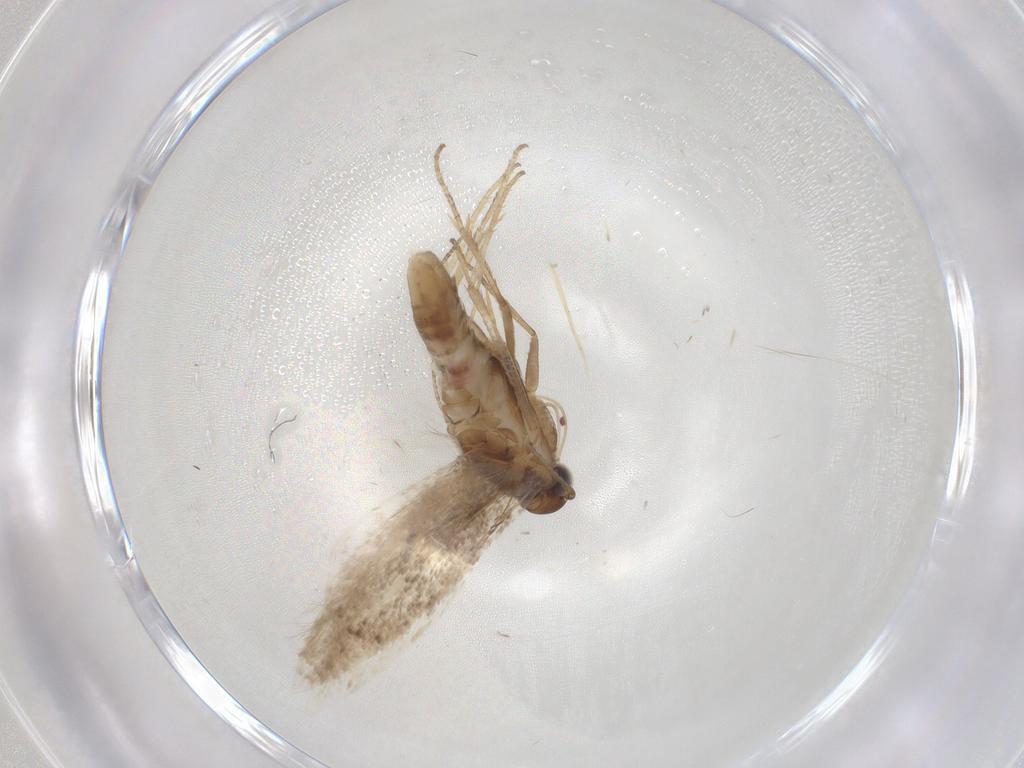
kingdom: Animalia
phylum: Arthropoda
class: Insecta
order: Lepidoptera
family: Gelechiidae
